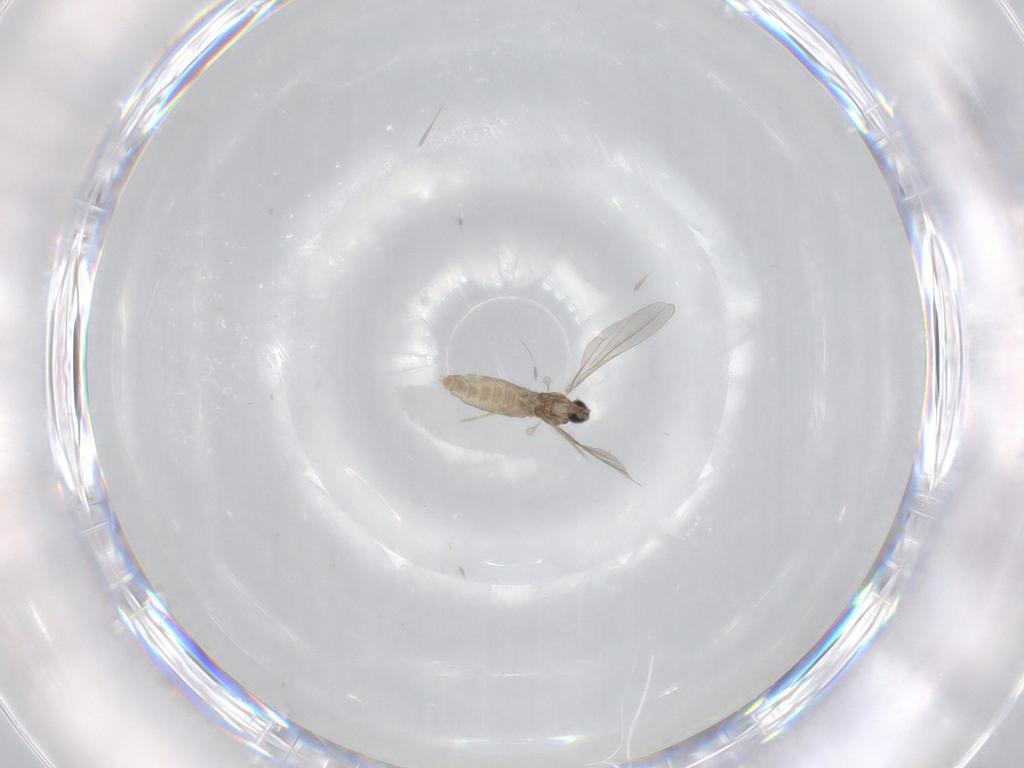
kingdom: Animalia
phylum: Arthropoda
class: Insecta
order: Diptera
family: Cecidomyiidae
